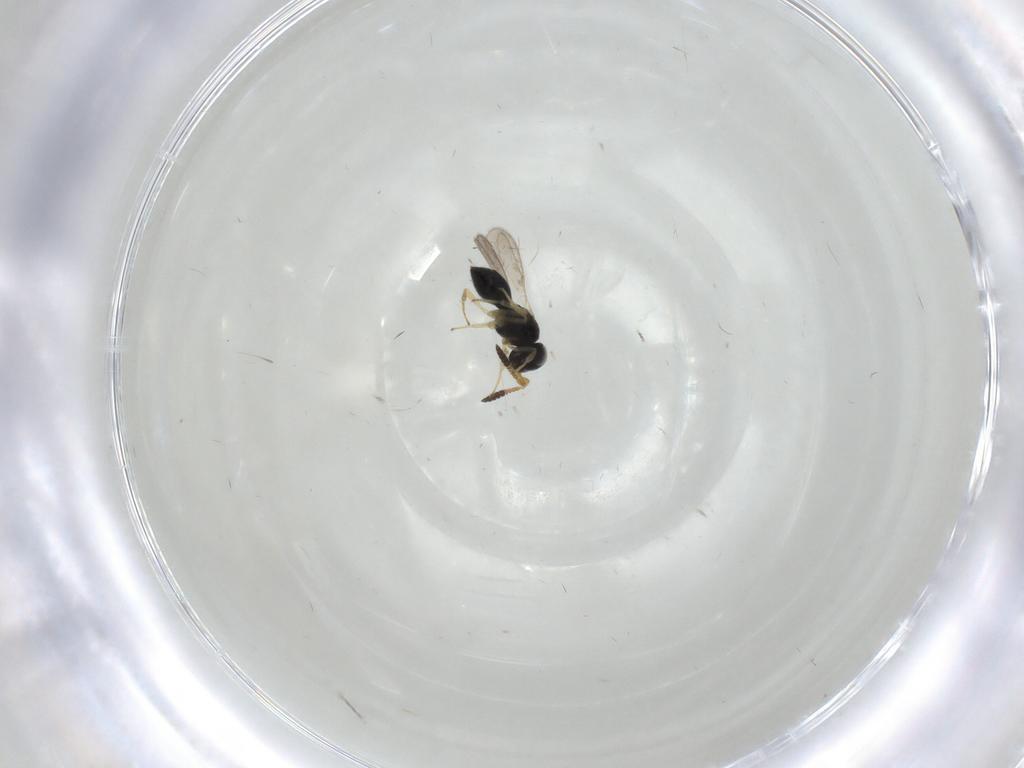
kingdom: Animalia
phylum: Arthropoda
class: Insecta
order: Hymenoptera
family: Scelionidae
